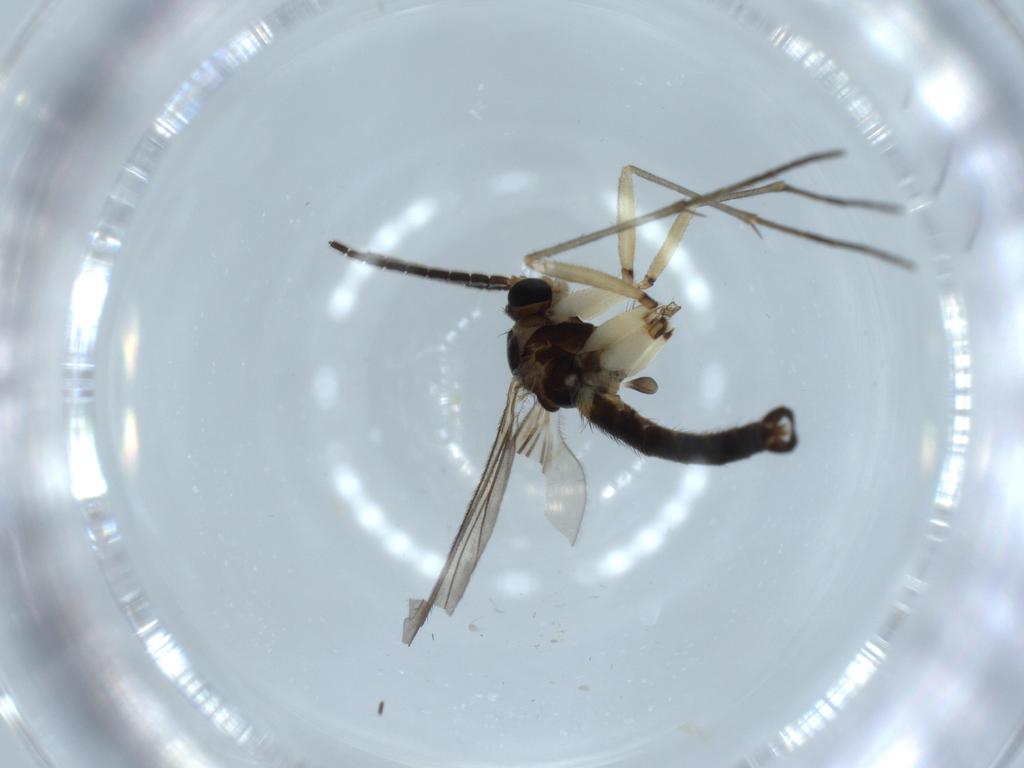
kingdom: Animalia
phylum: Arthropoda
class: Insecta
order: Diptera
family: Sciaridae
